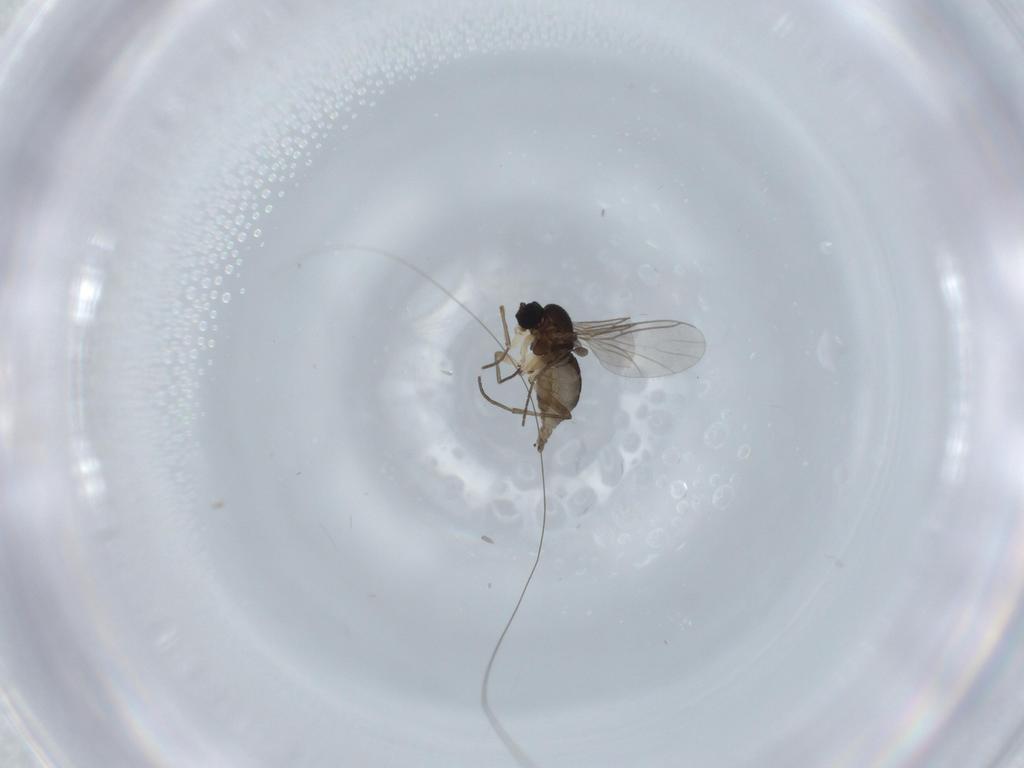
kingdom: Animalia
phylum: Arthropoda
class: Insecta
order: Diptera
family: Sciaridae
